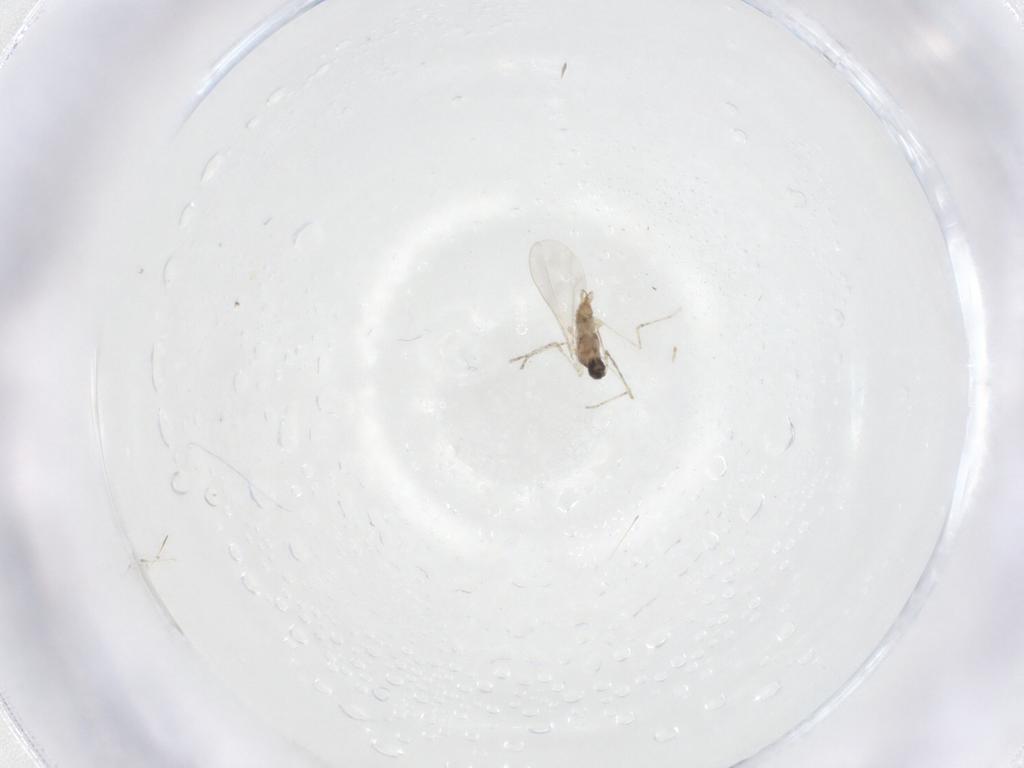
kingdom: Animalia
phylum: Arthropoda
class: Insecta
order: Diptera
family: Cecidomyiidae
